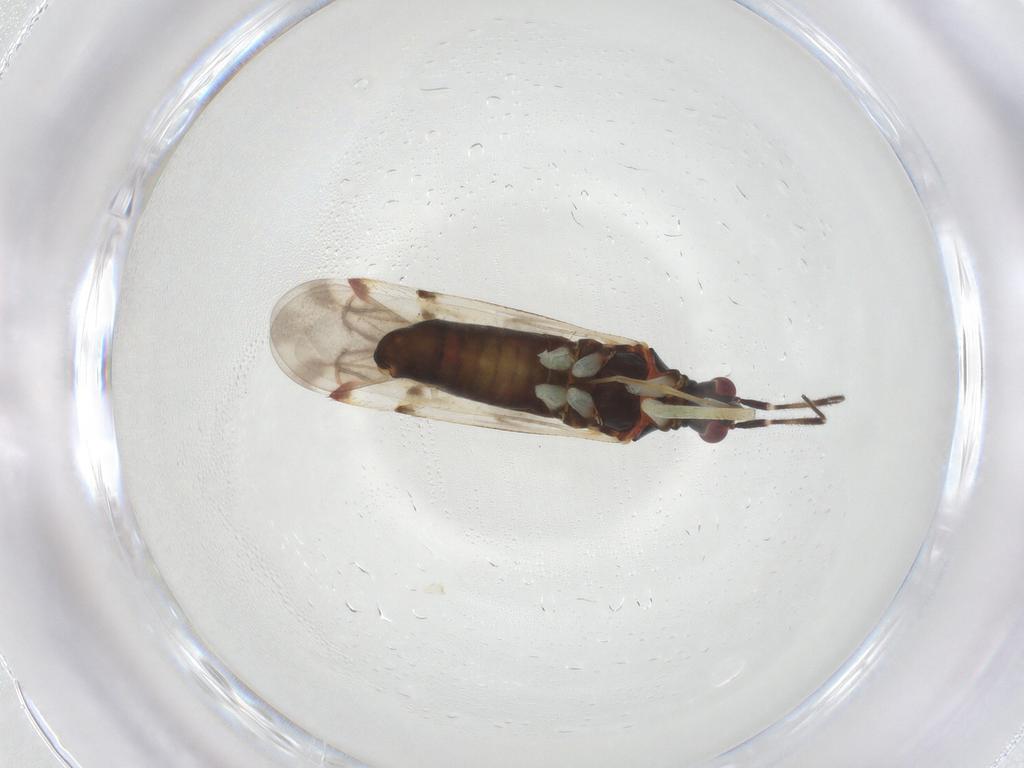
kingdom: Animalia
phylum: Arthropoda
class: Insecta
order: Hemiptera
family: Miridae
